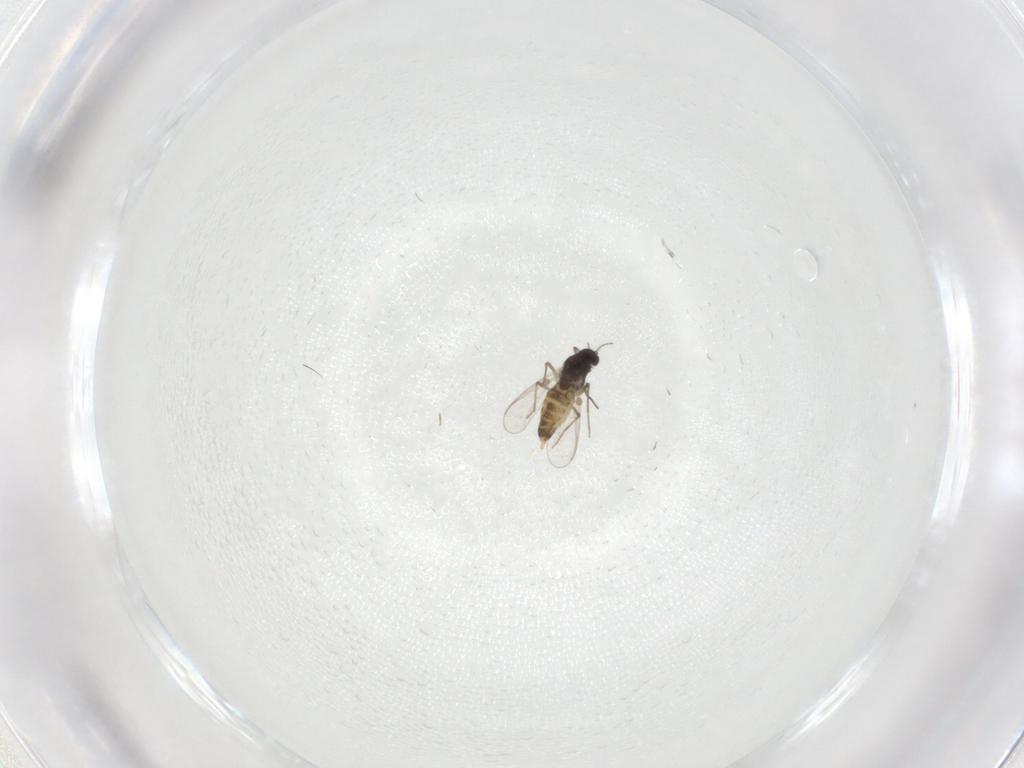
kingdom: Animalia
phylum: Arthropoda
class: Insecta
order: Diptera
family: Chironomidae
